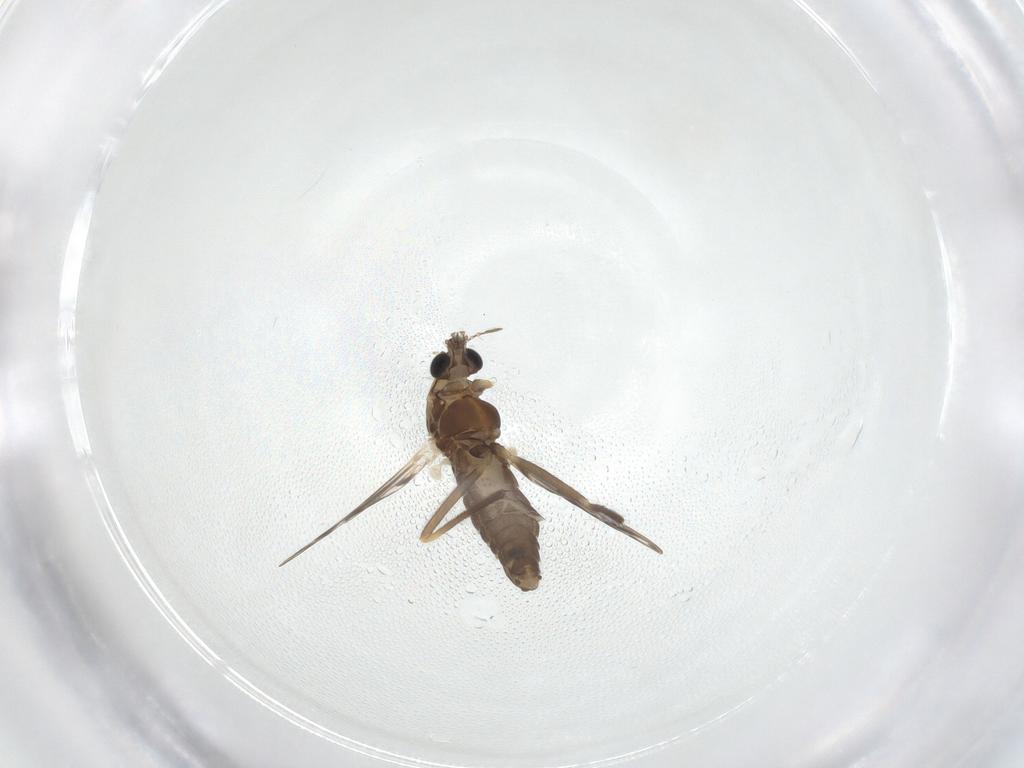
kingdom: Animalia
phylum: Arthropoda
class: Insecta
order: Diptera
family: Chironomidae
